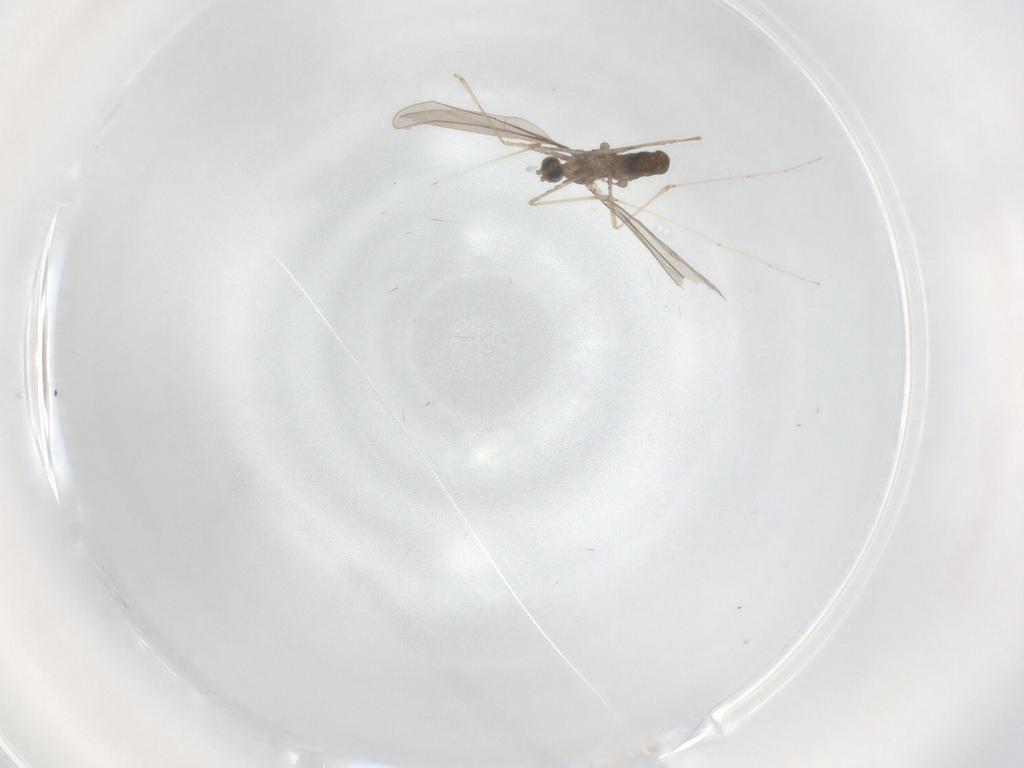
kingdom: Animalia
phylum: Arthropoda
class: Insecta
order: Diptera
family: Cecidomyiidae
